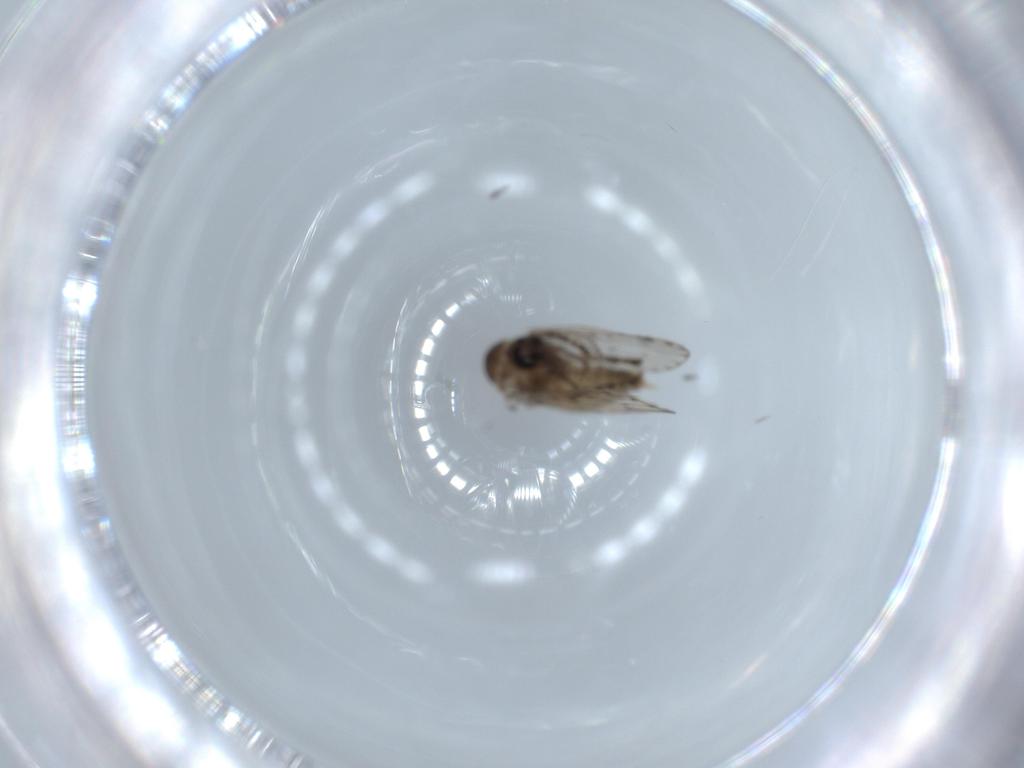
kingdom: Animalia
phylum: Arthropoda
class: Insecta
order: Diptera
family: Psychodidae
